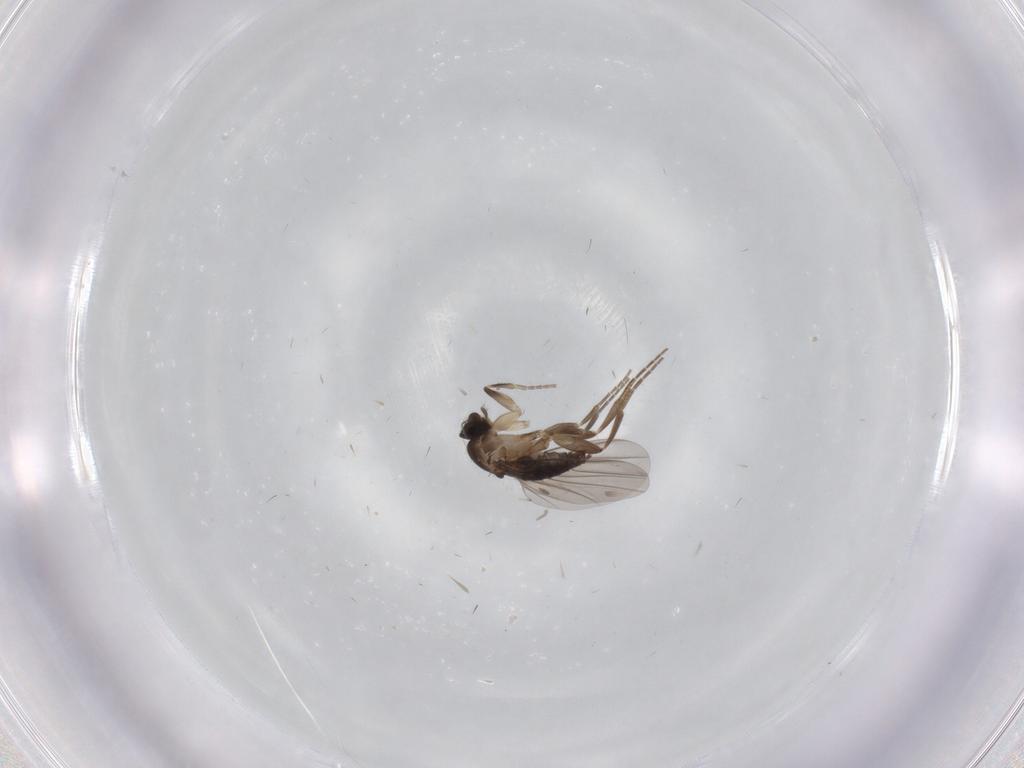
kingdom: Animalia
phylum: Arthropoda
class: Insecta
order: Diptera
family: Phoridae
